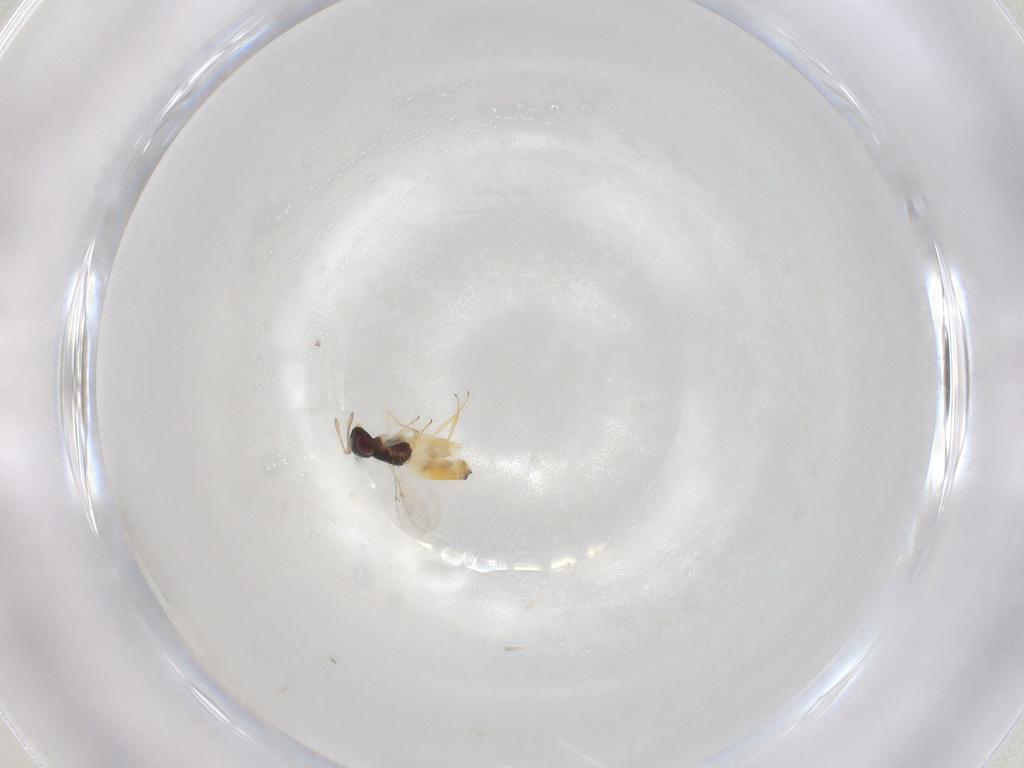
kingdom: Animalia
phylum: Arthropoda
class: Insecta
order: Hymenoptera
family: Encyrtidae
